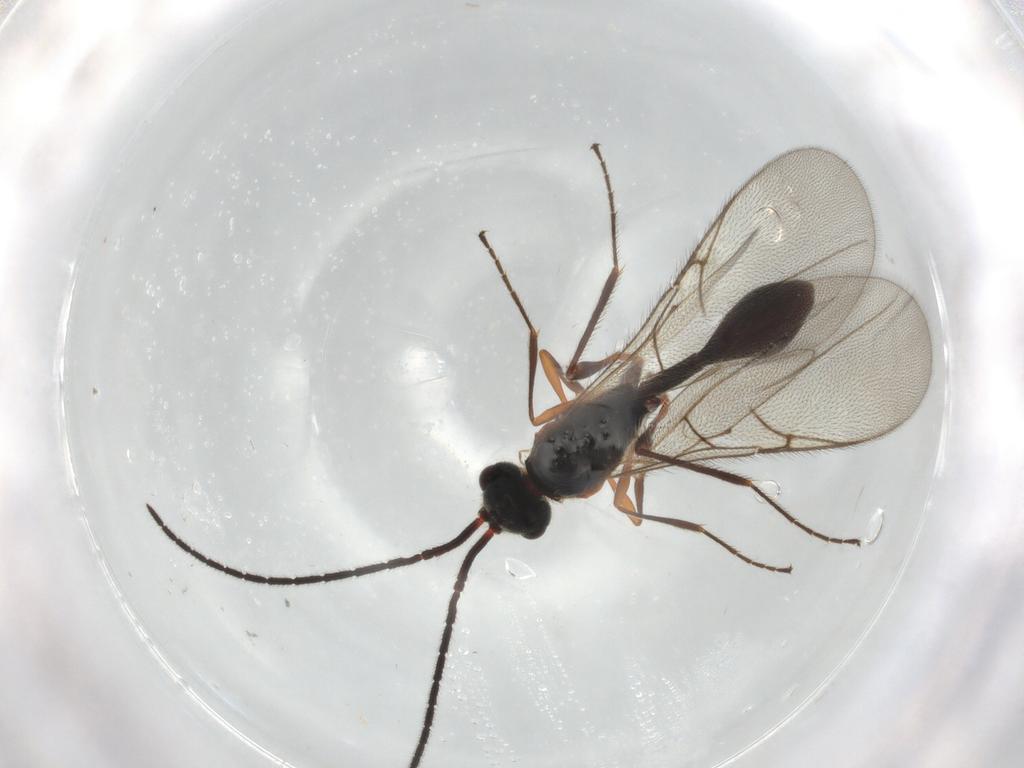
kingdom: Animalia
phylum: Arthropoda
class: Insecta
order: Hymenoptera
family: Diapriidae
